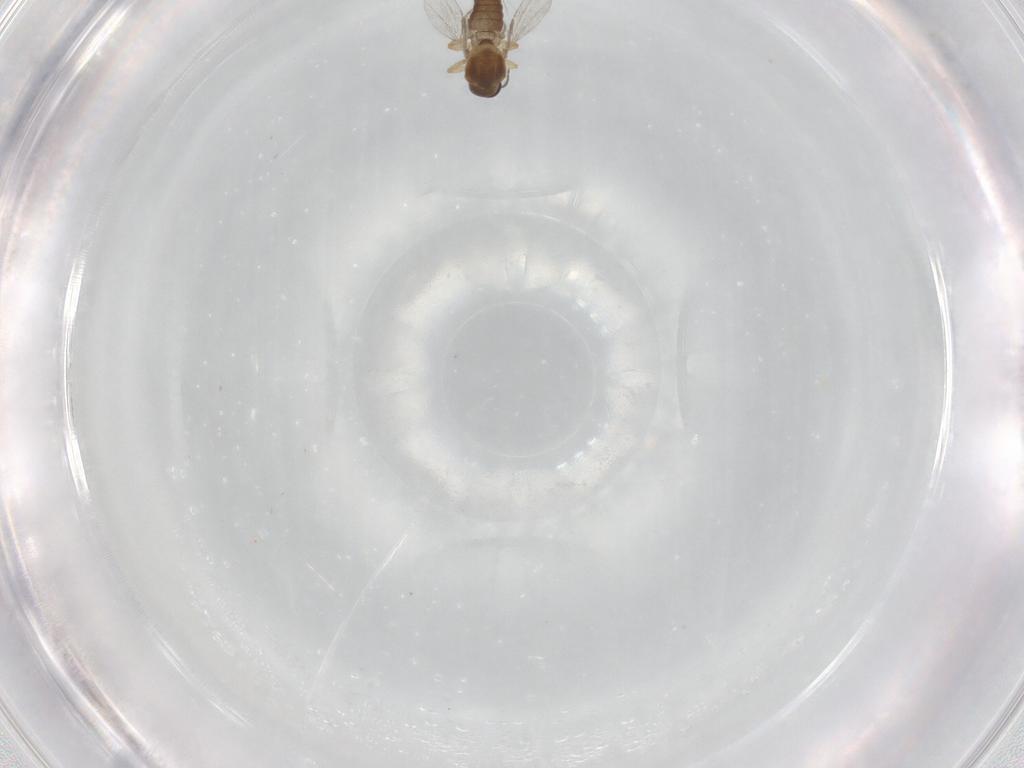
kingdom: Animalia
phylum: Arthropoda
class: Insecta
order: Diptera
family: Ceratopogonidae
